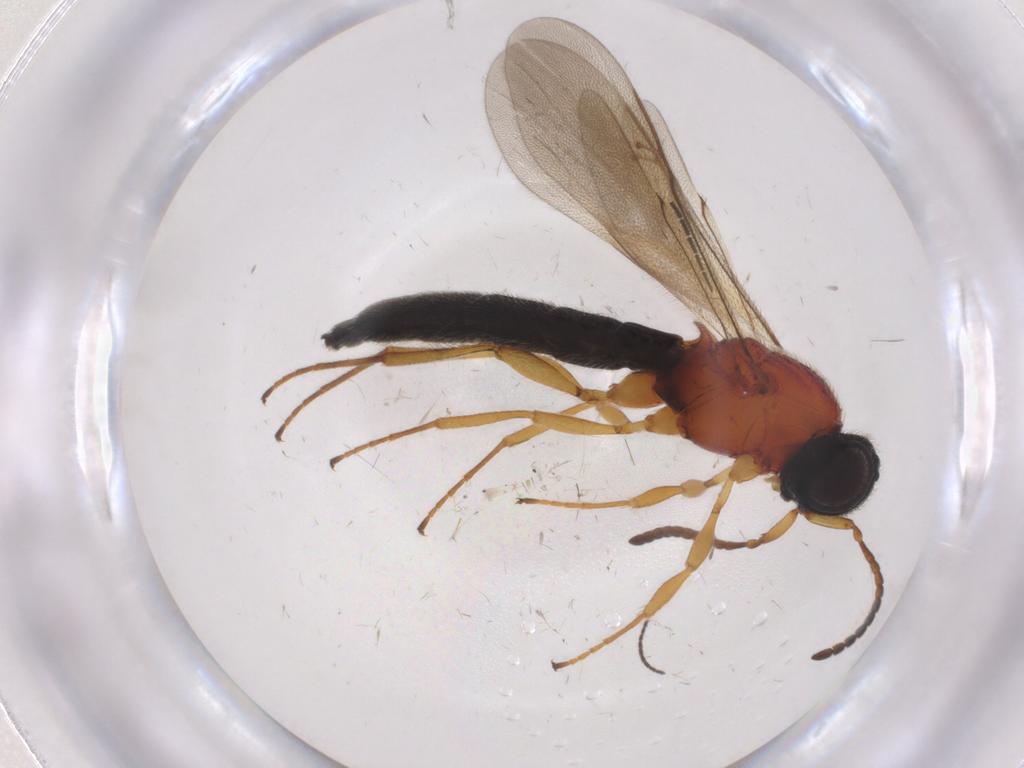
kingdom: Animalia
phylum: Arthropoda
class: Insecta
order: Hymenoptera
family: Scelionidae
